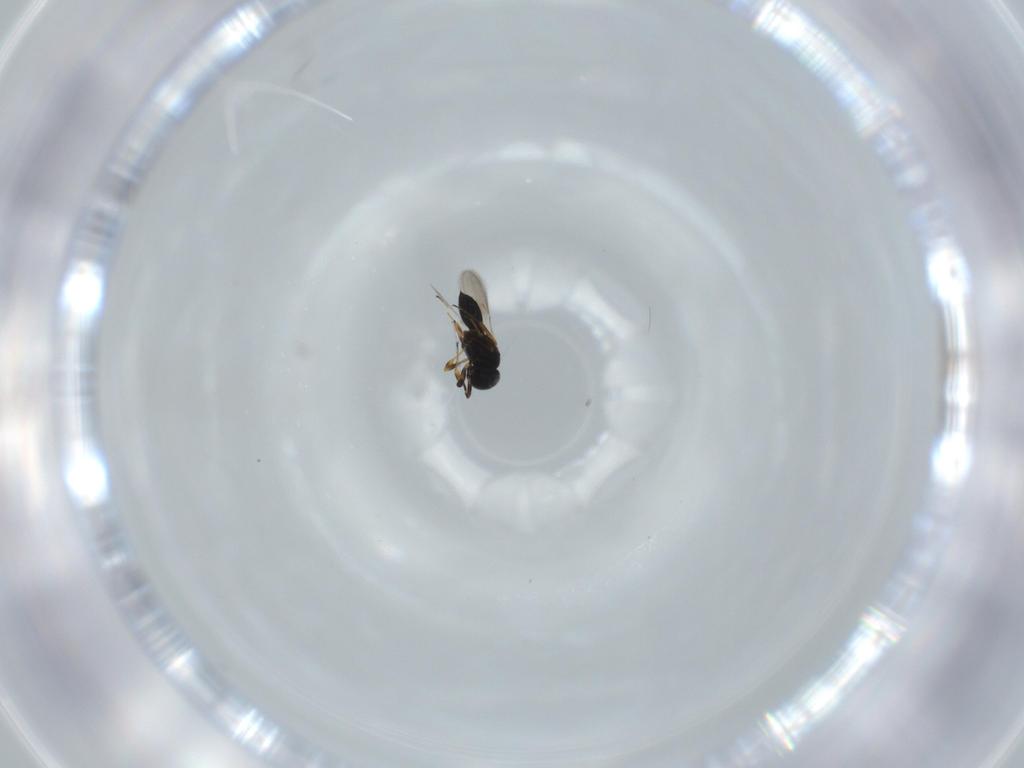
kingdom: Animalia
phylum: Arthropoda
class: Insecta
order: Hymenoptera
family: Scelionidae
